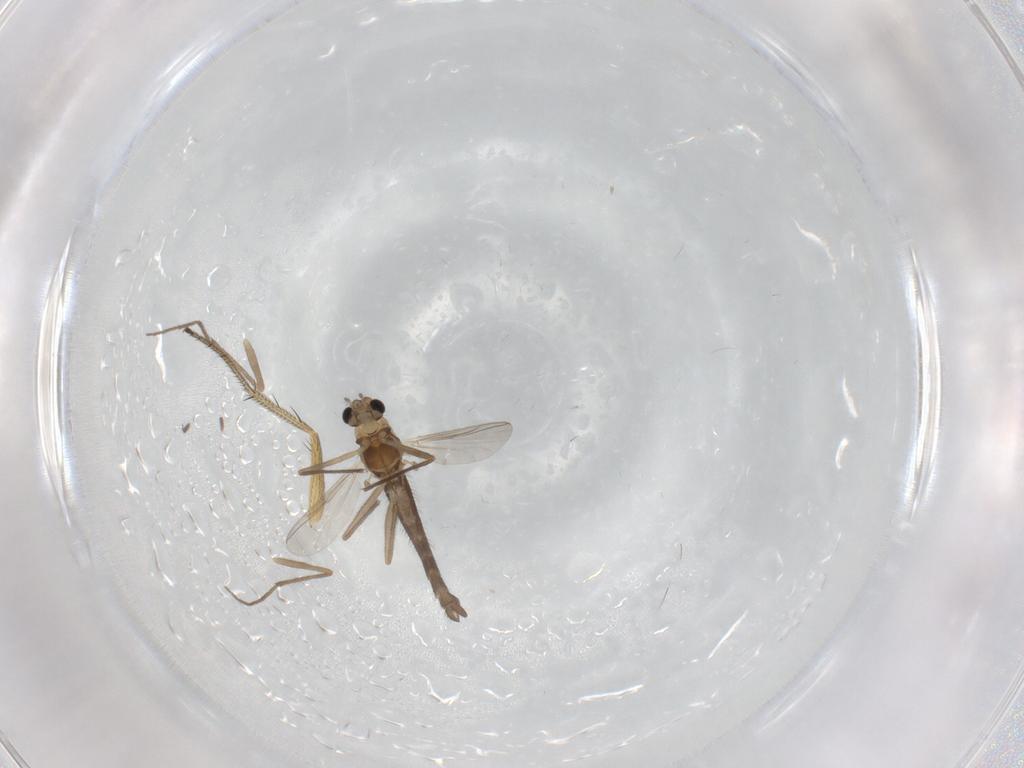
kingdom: Animalia
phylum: Arthropoda
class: Insecta
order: Diptera
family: Chironomidae
